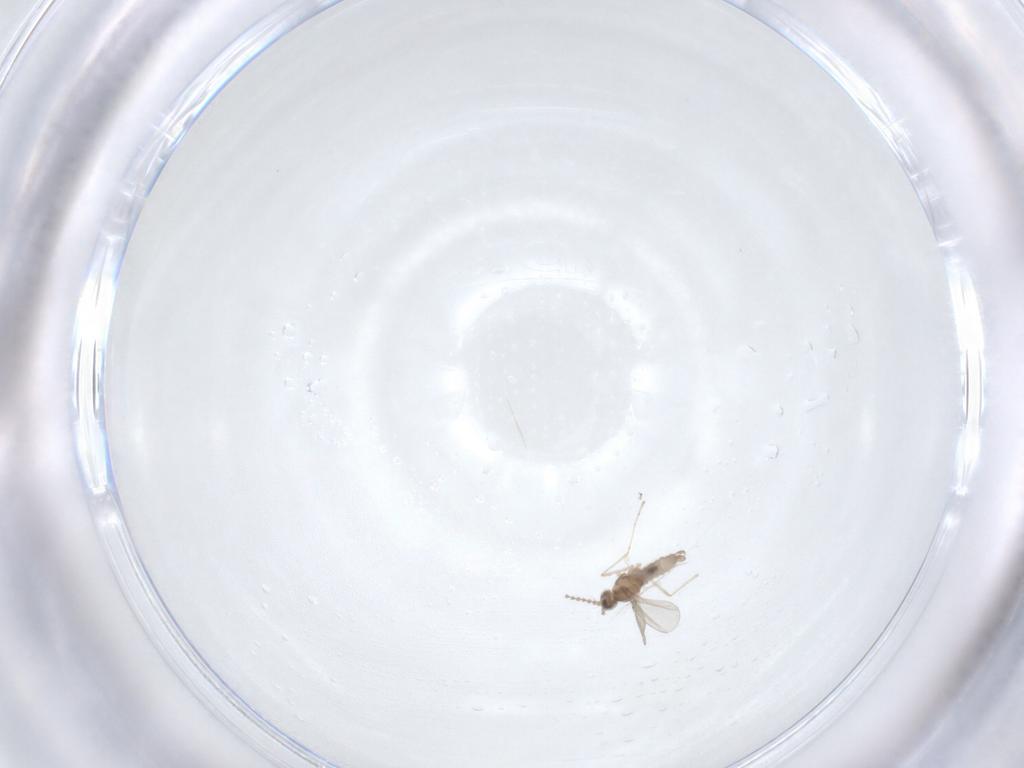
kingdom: Animalia
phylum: Arthropoda
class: Insecta
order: Diptera
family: Cecidomyiidae
